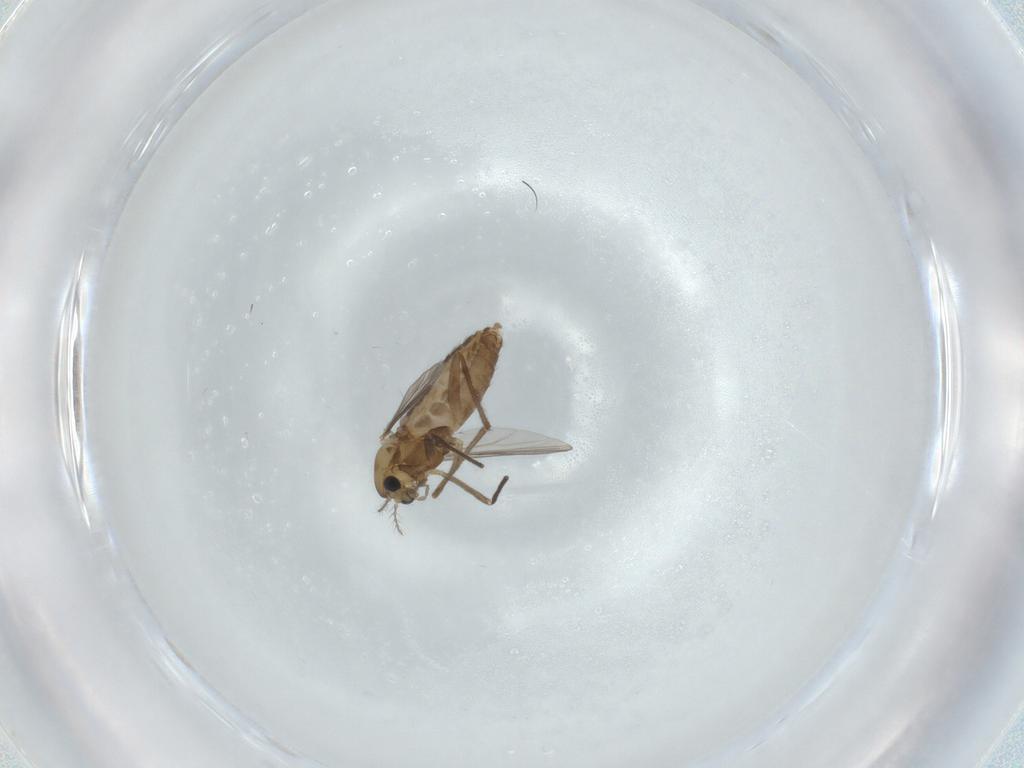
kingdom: Animalia
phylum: Arthropoda
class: Insecta
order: Diptera
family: Chironomidae
